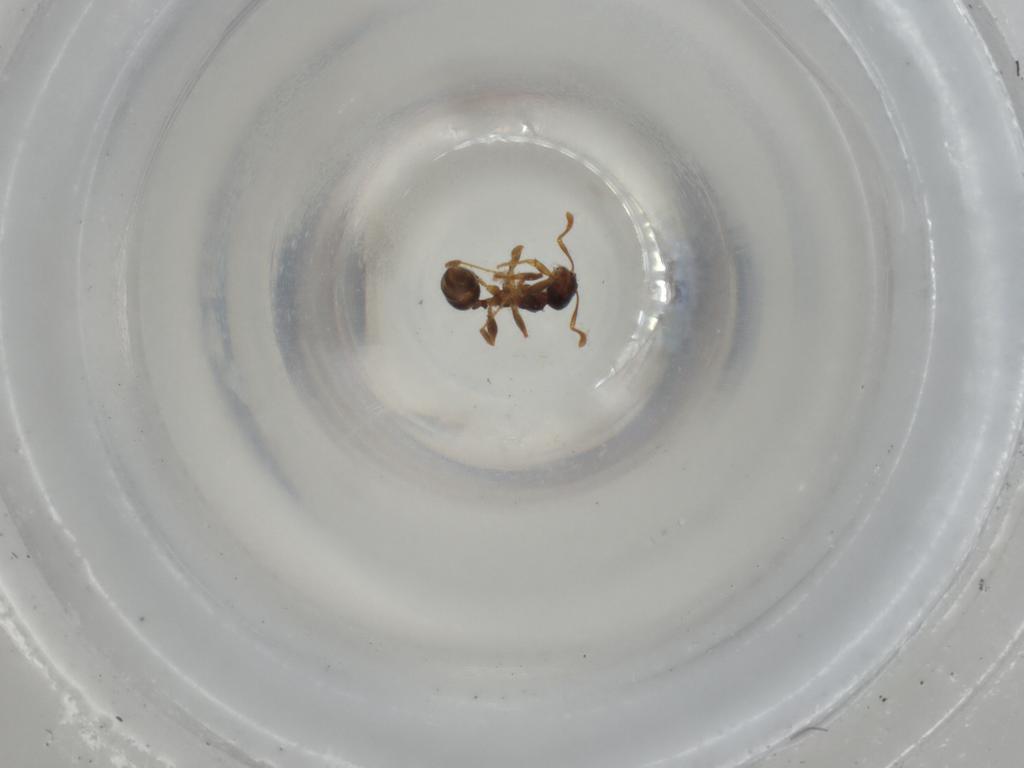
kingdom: Animalia
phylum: Arthropoda
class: Insecta
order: Hymenoptera
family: Formicidae
